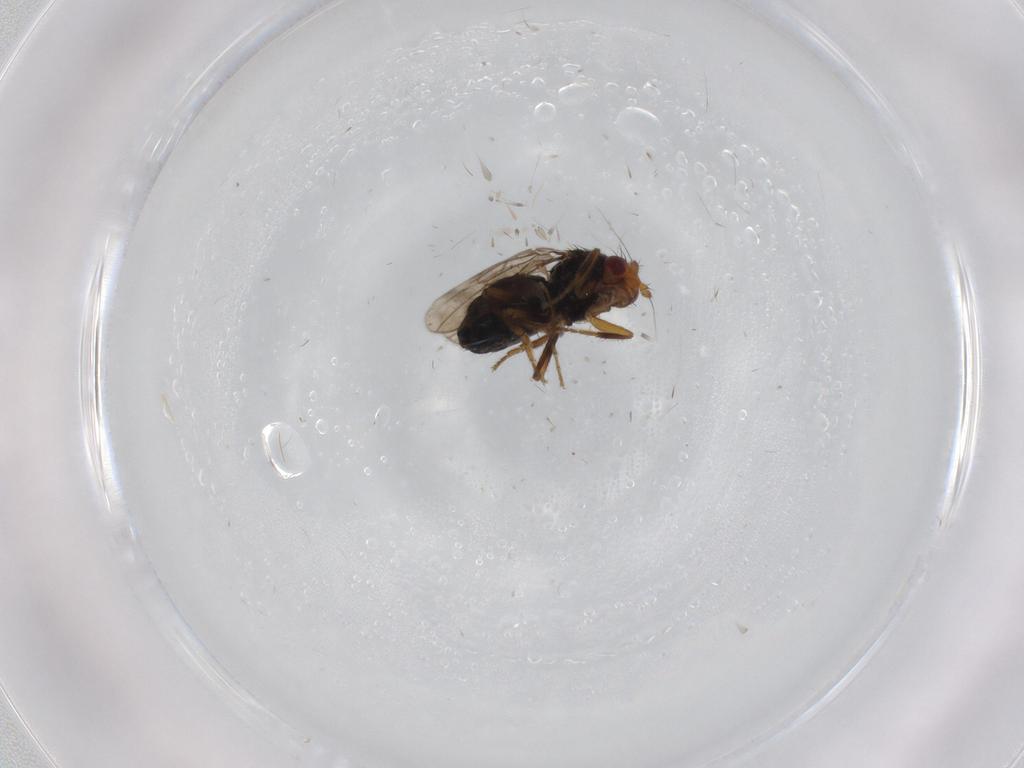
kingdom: Animalia
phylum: Arthropoda
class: Insecta
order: Diptera
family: Sphaeroceridae
